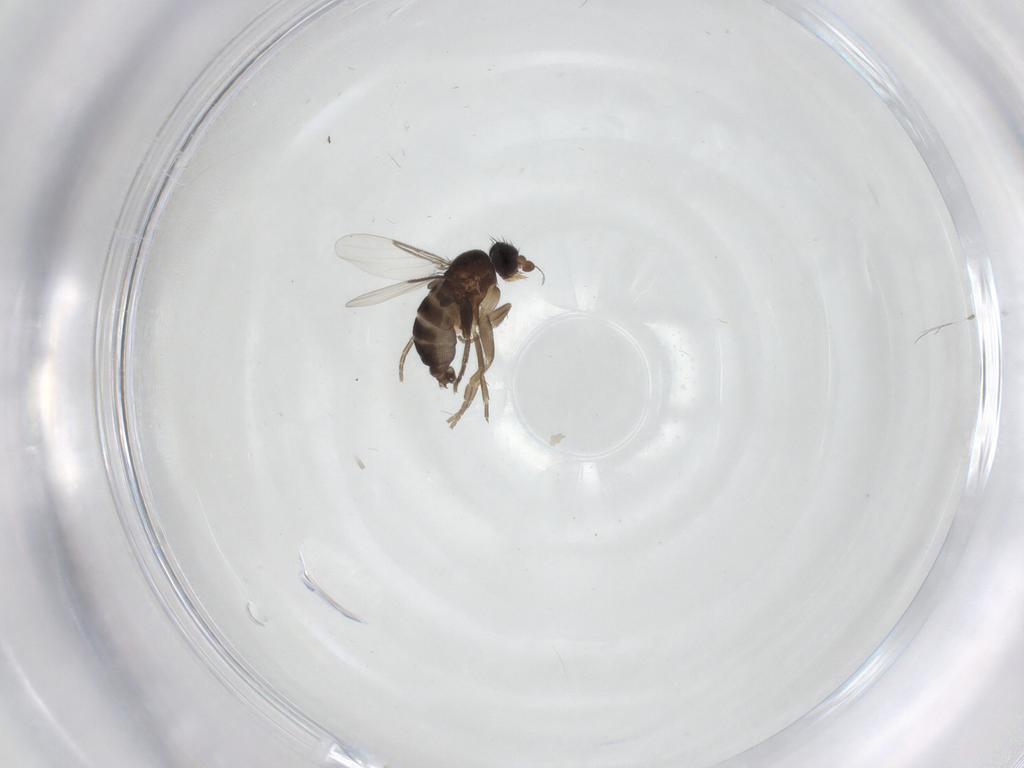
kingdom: Animalia
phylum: Arthropoda
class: Insecta
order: Diptera
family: Phoridae
